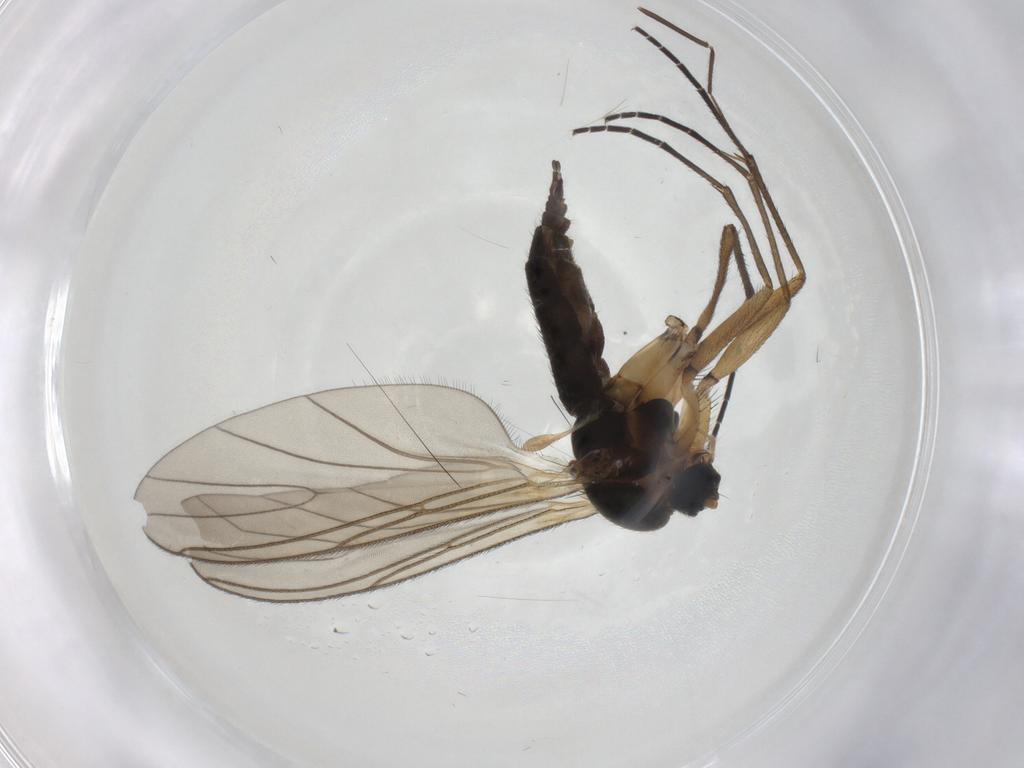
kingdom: Animalia
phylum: Arthropoda
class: Insecta
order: Diptera
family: Sciaridae
